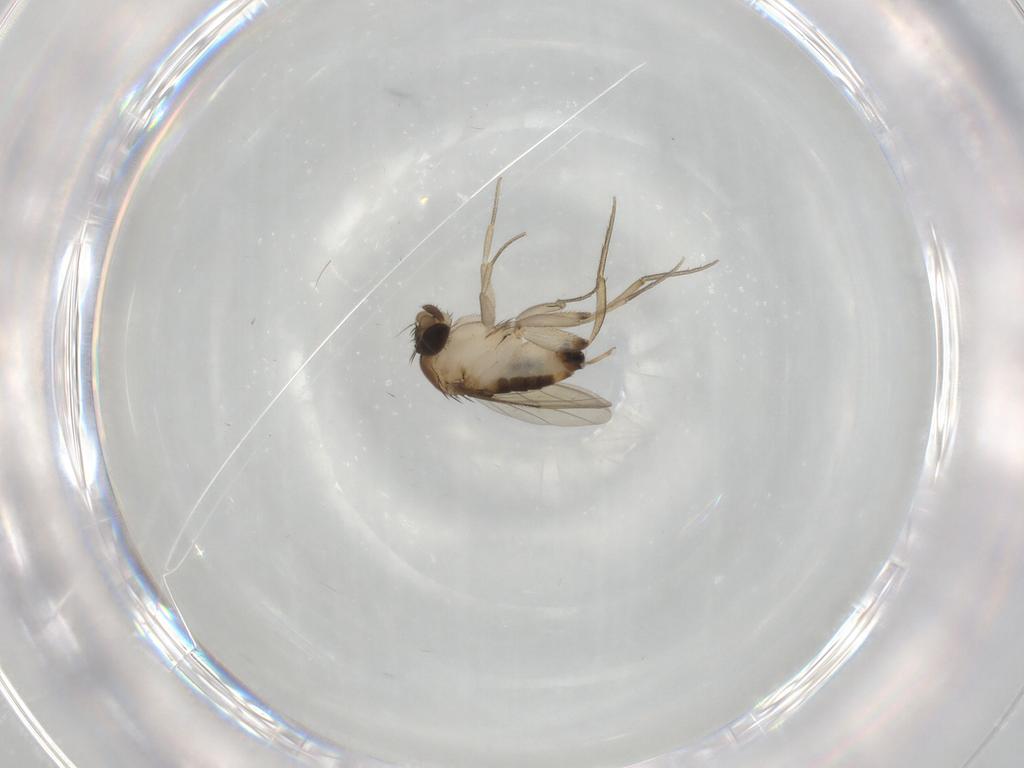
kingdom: Animalia
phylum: Arthropoda
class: Insecta
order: Diptera
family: Phoridae
